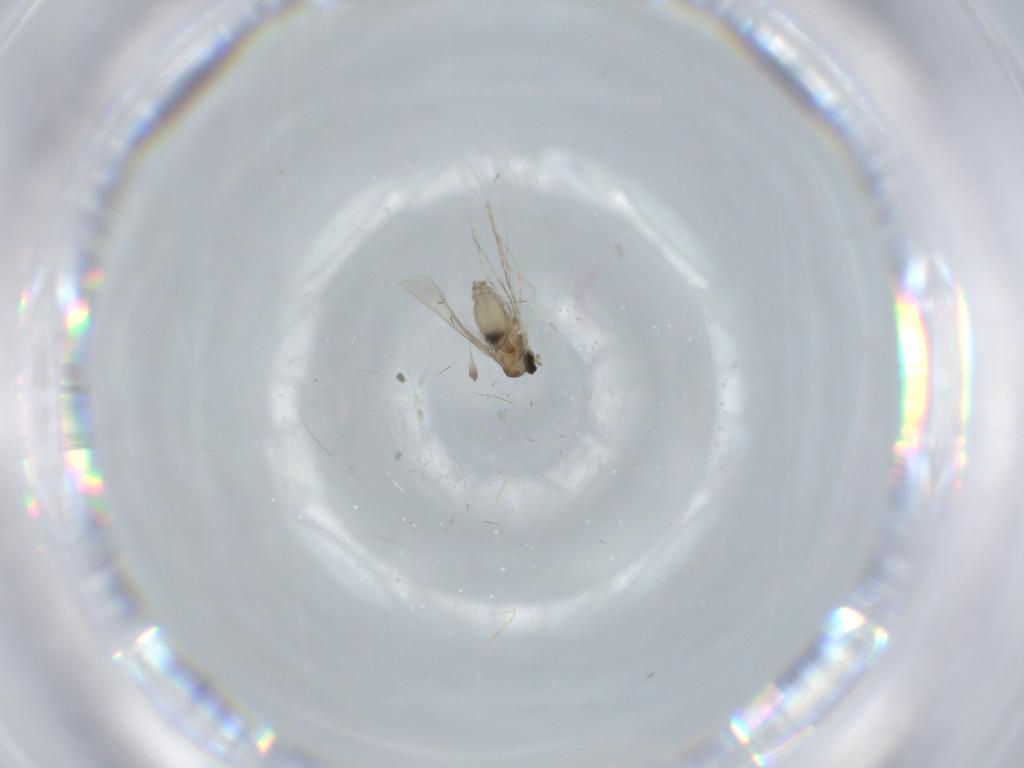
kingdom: Animalia
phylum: Arthropoda
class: Insecta
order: Diptera
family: Cecidomyiidae
